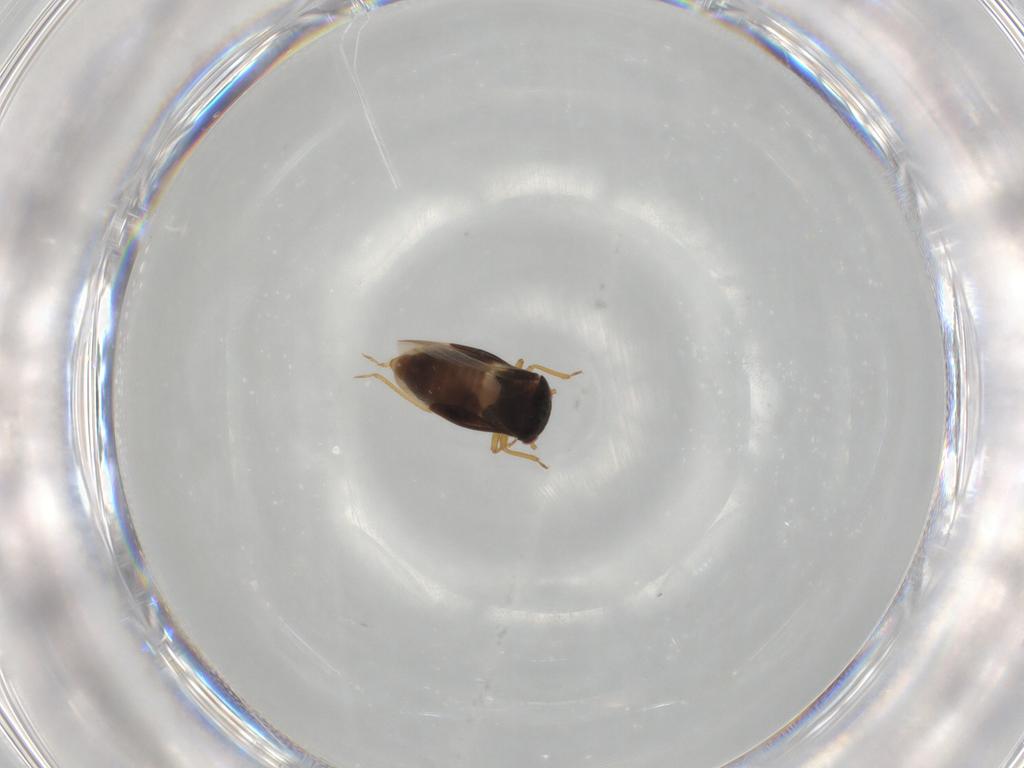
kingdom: Animalia
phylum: Arthropoda
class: Insecta
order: Hemiptera
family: Schizopteridae
